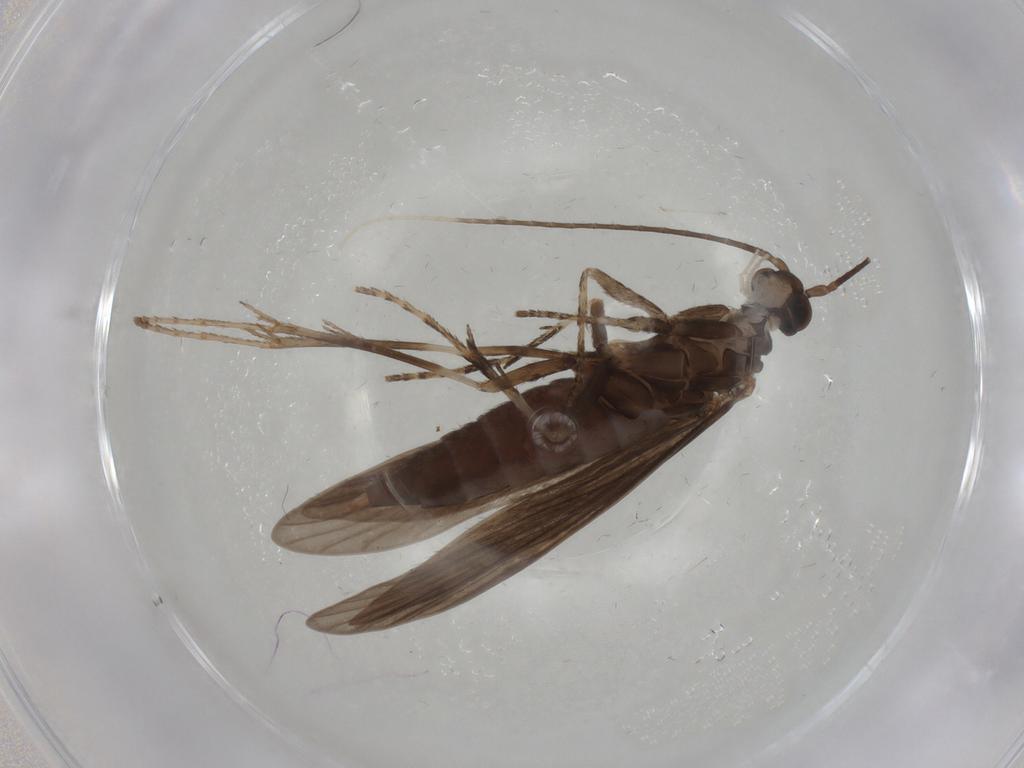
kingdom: Animalia
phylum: Arthropoda
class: Insecta
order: Trichoptera
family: Xiphocentronidae
